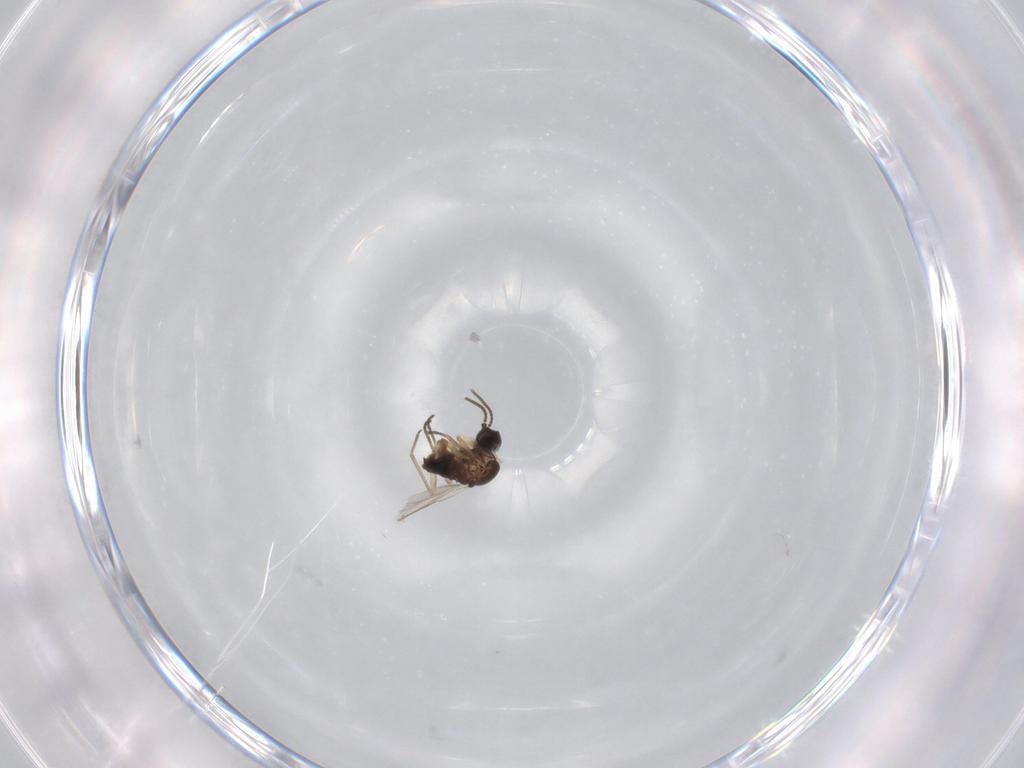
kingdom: Animalia
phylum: Arthropoda
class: Insecta
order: Diptera
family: Sciaridae
